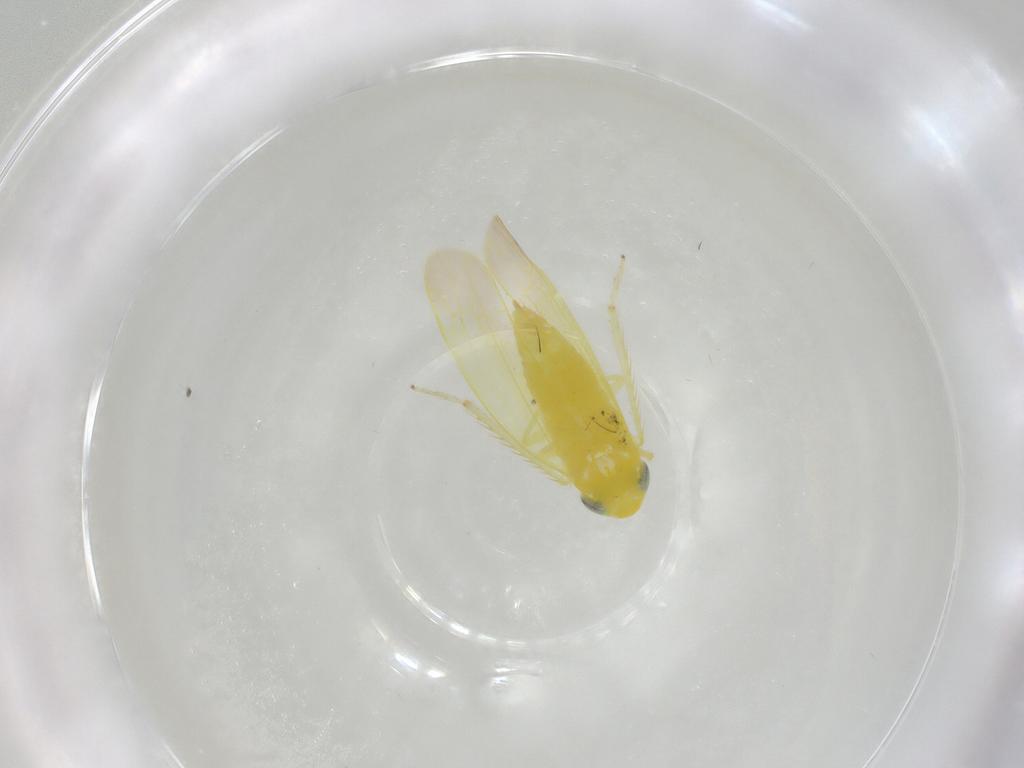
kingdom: Animalia
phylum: Arthropoda
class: Insecta
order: Hemiptera
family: Cicadellidae
